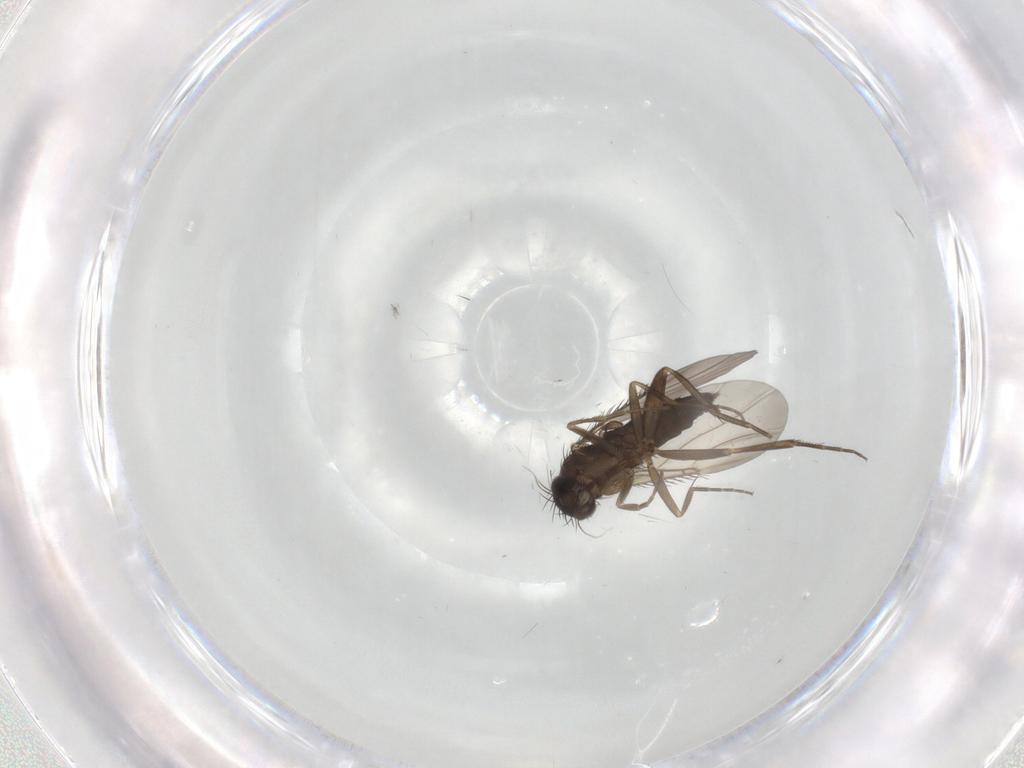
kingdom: Animalia
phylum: Arthropoda
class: Insecta
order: Diptera
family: Phoridae
